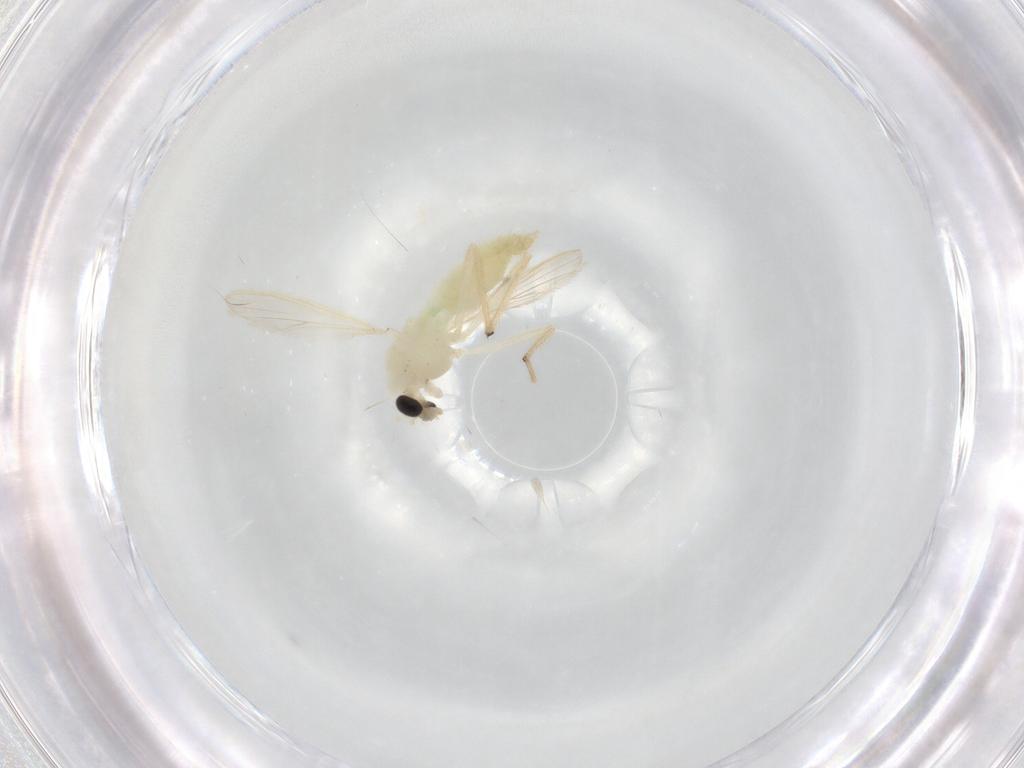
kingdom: Animalia
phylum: Arthropoda
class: Insecta
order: Diptera
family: Chironomidae
